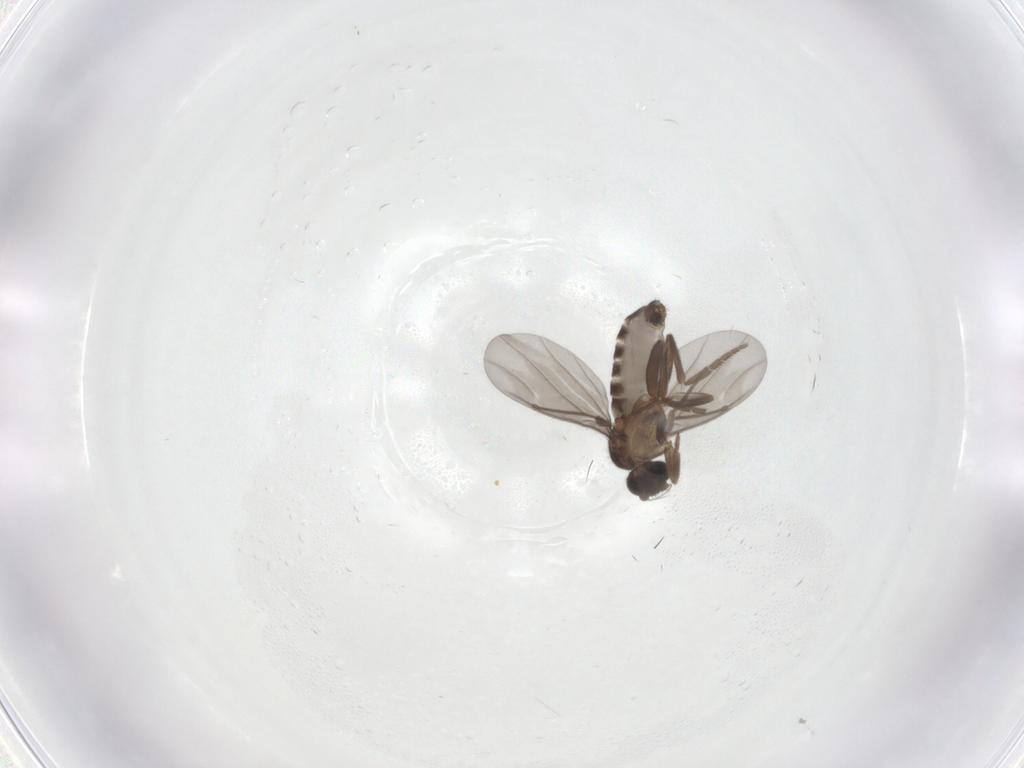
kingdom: Animalia
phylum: Arthropoda
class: Insecta
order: Diptera
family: Phoridae
